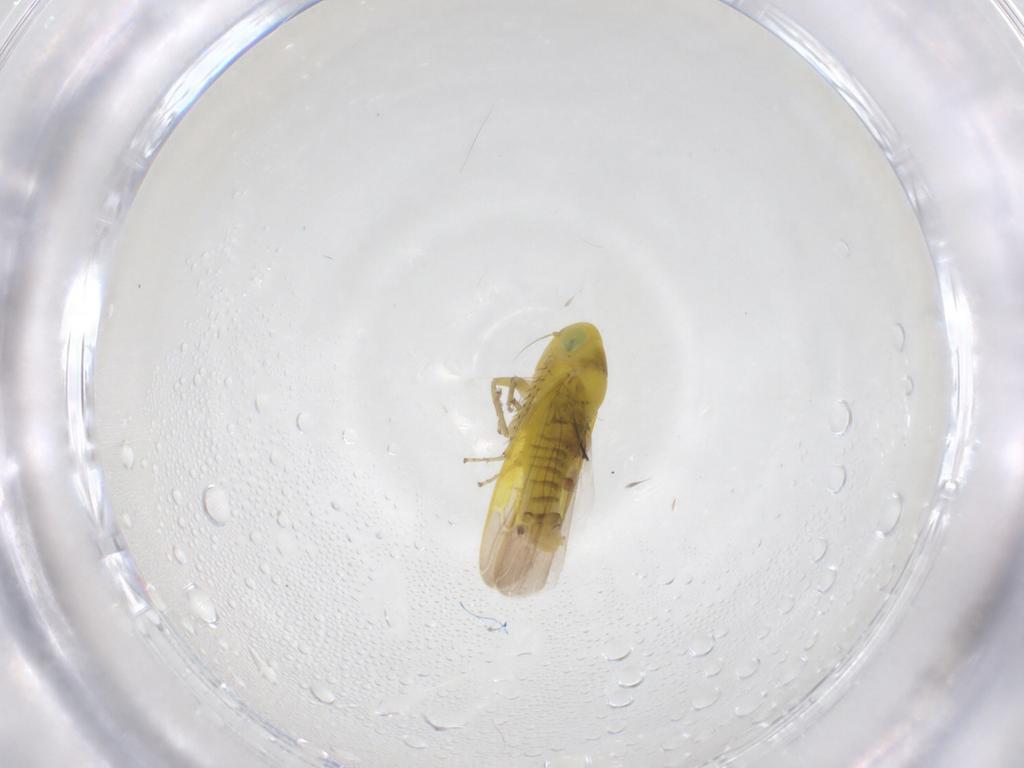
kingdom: Animalia
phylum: Arthropoda
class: Insecta
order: Hemiptera
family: Cicadellidae
